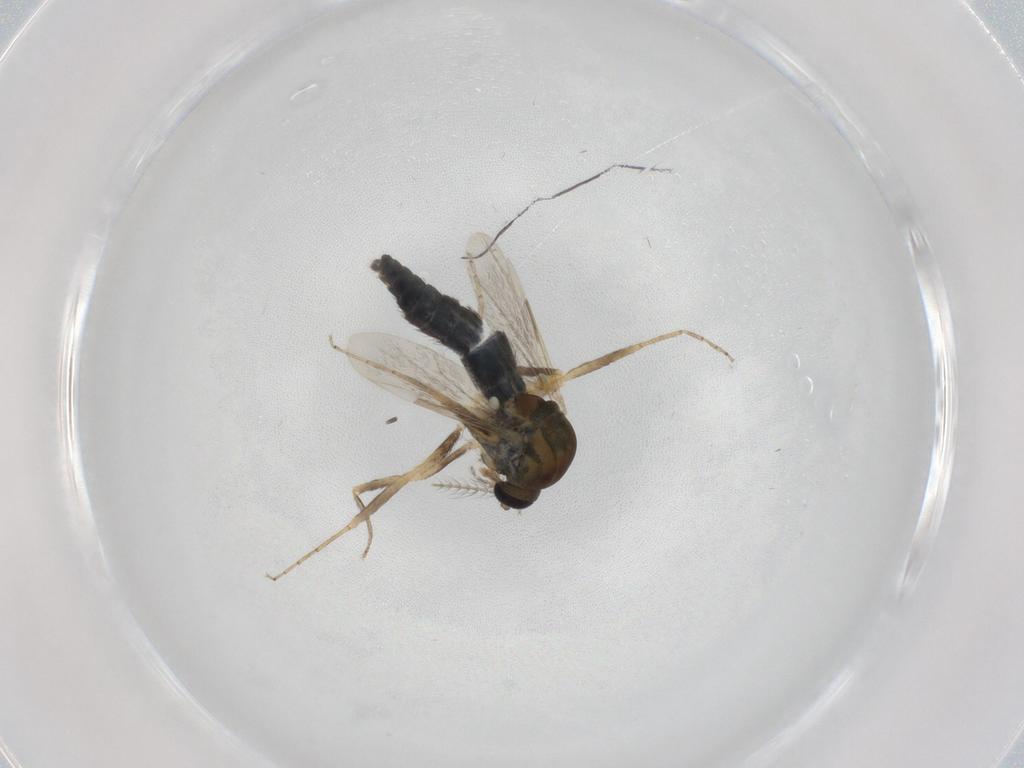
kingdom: Animalia
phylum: Arthropoda
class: Insecta
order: Diptera
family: Ceratopogonidae
